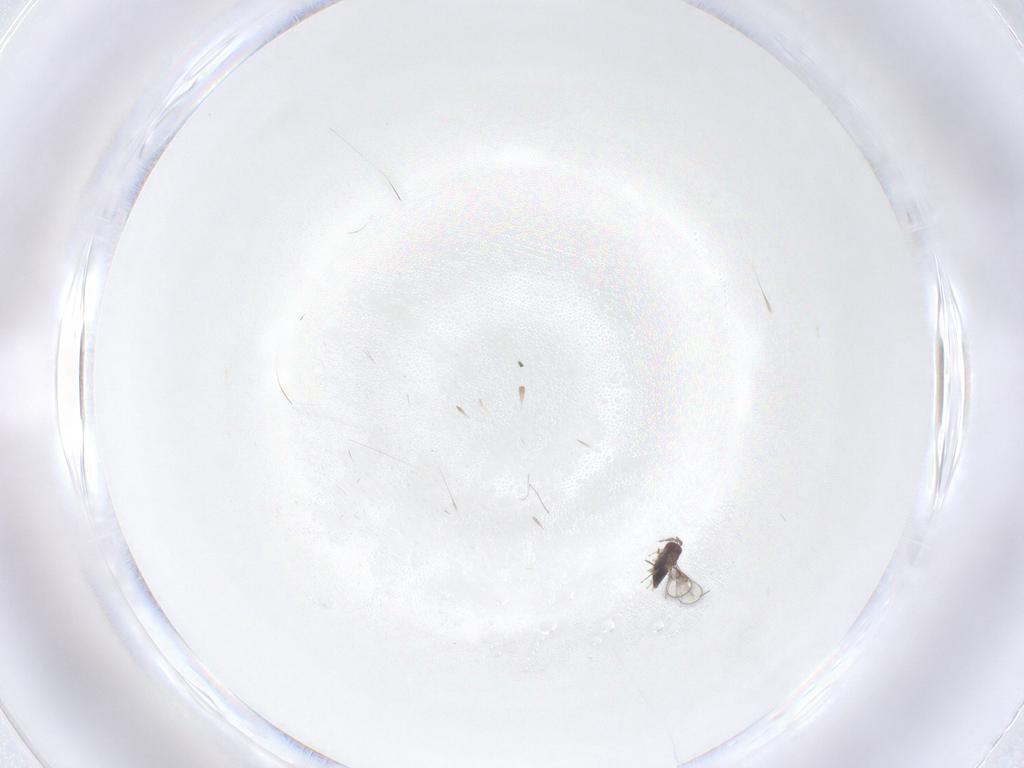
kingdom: Animalia
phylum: Arthropoda
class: Insecta
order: Hymenoptera
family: Trichogrammatidae
